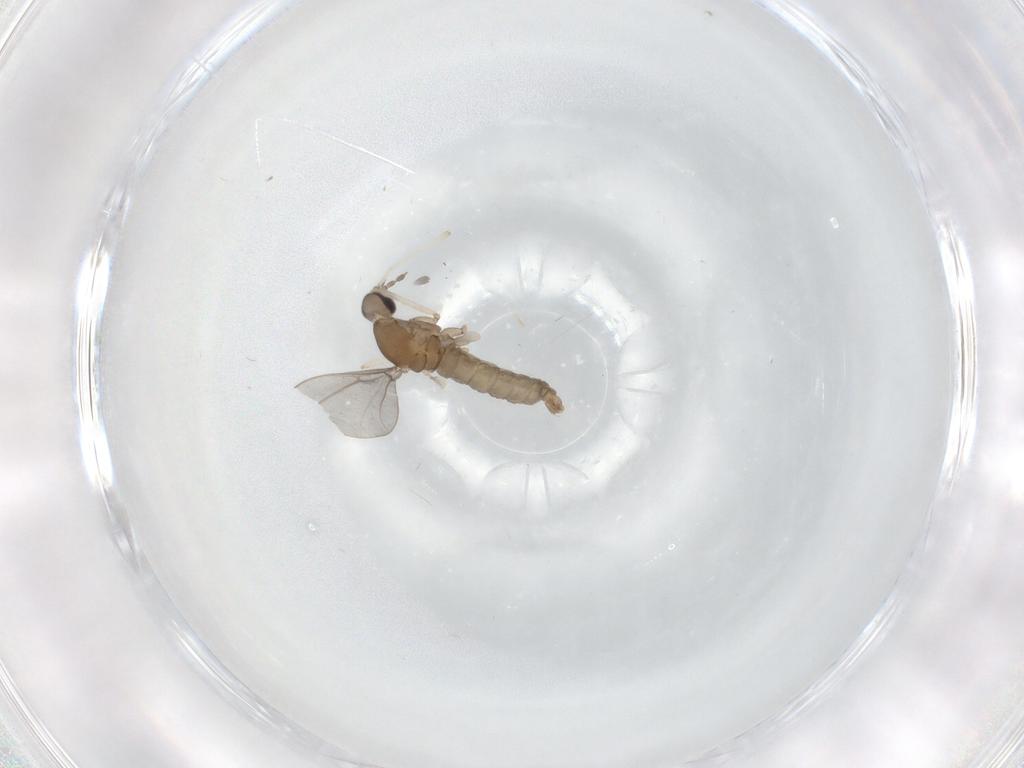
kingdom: Animalia
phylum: Arthropoda
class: Insecta
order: Diptera
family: Cecidomyiidae
